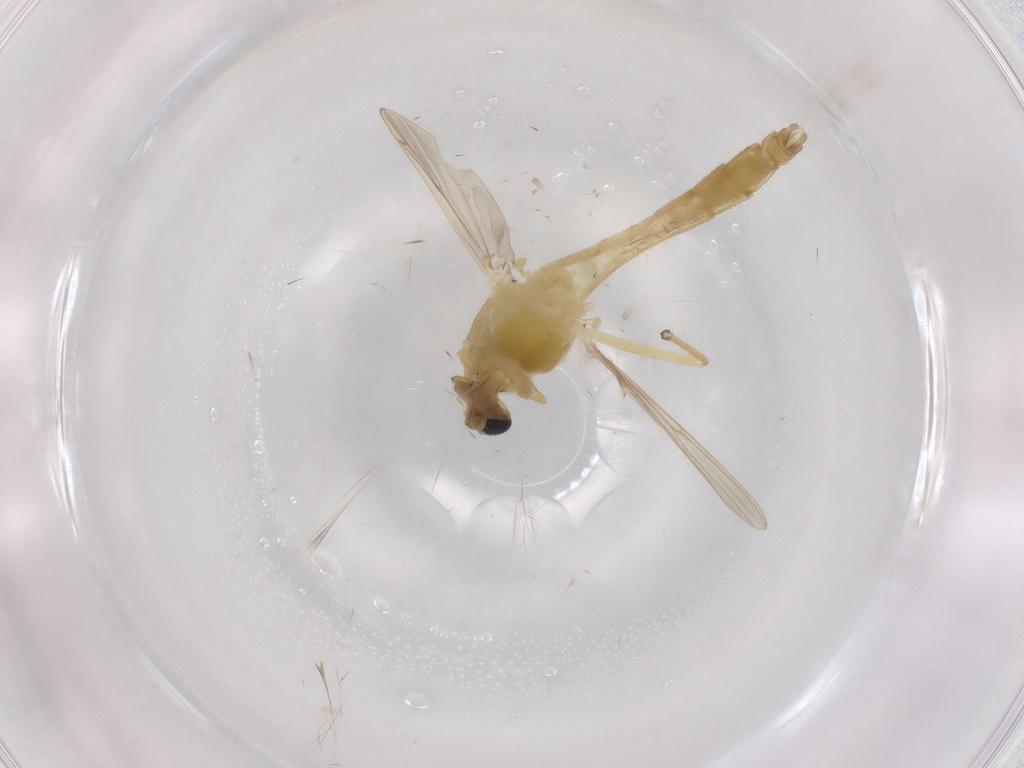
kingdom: Animalia
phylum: Arthropoda
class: Insecta
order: Diptera
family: Chironomidae
